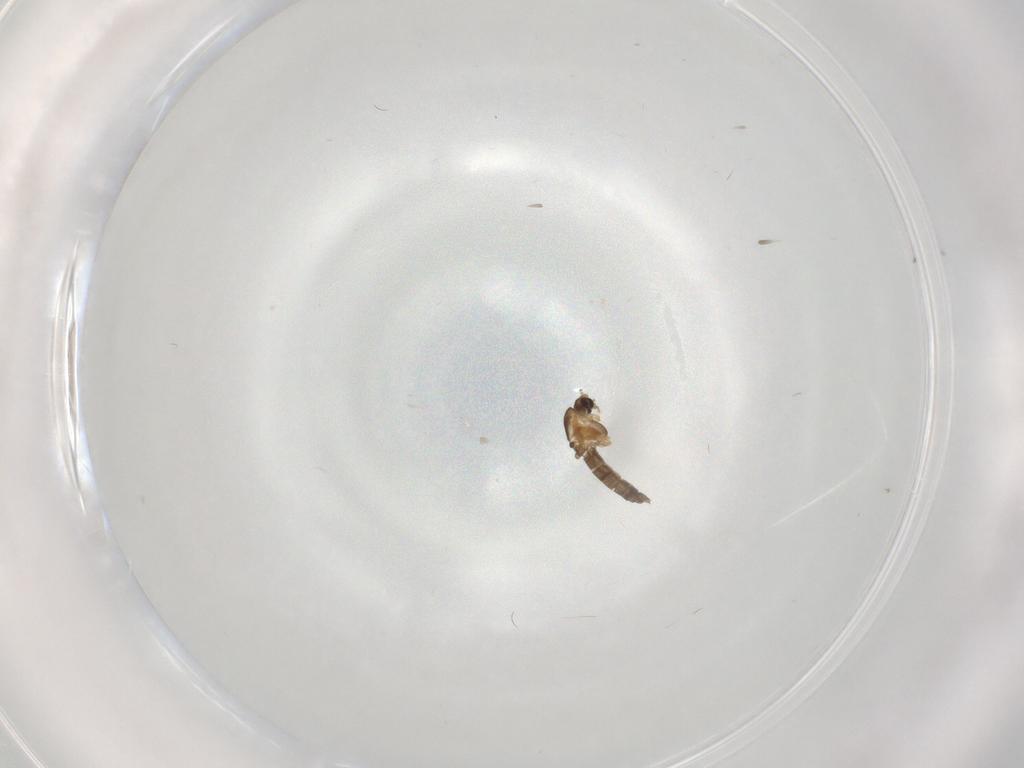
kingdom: Animalia
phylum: Arthropoda
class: Insecta
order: Diptera
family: Chironomidae
